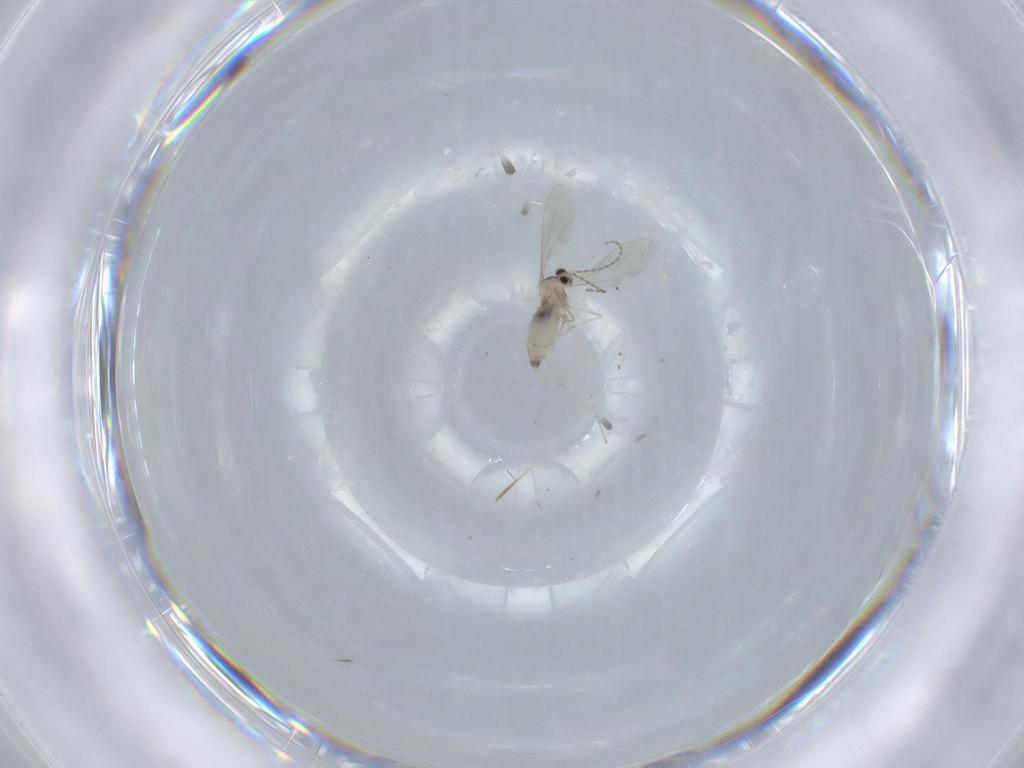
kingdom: Animalia
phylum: Arthropoda
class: Insecta
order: Diptera
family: Cecidomyiidae
